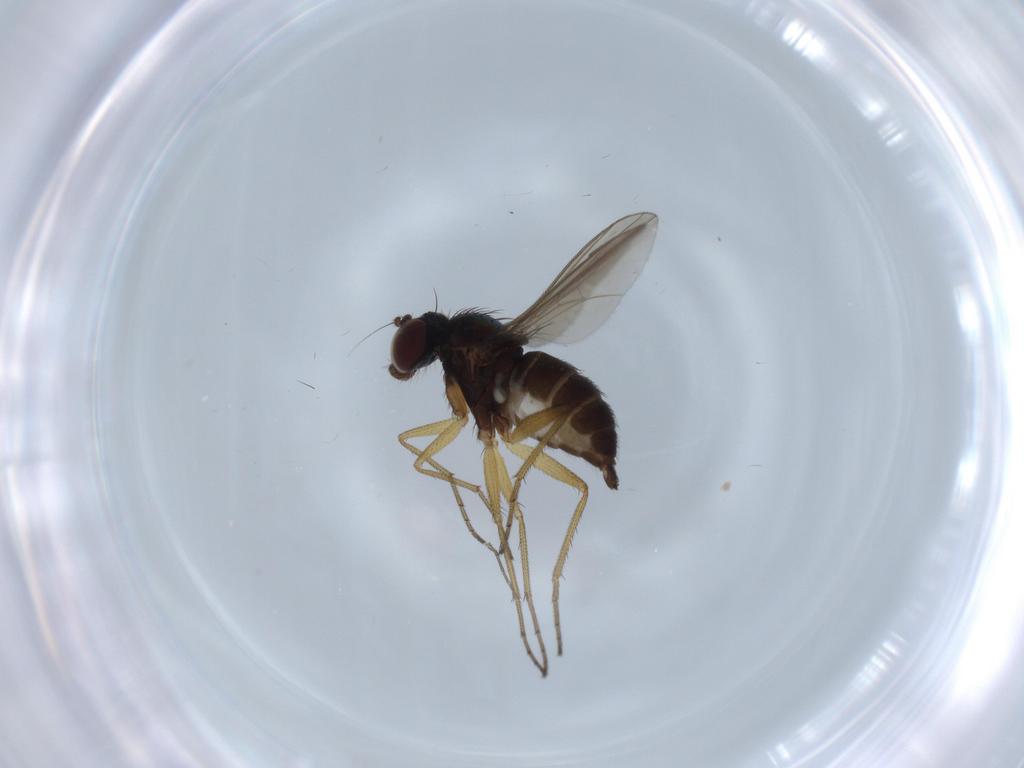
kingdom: Animalia
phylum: Arthropoda
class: Insecta
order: Diptera
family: Dolichopodidae
